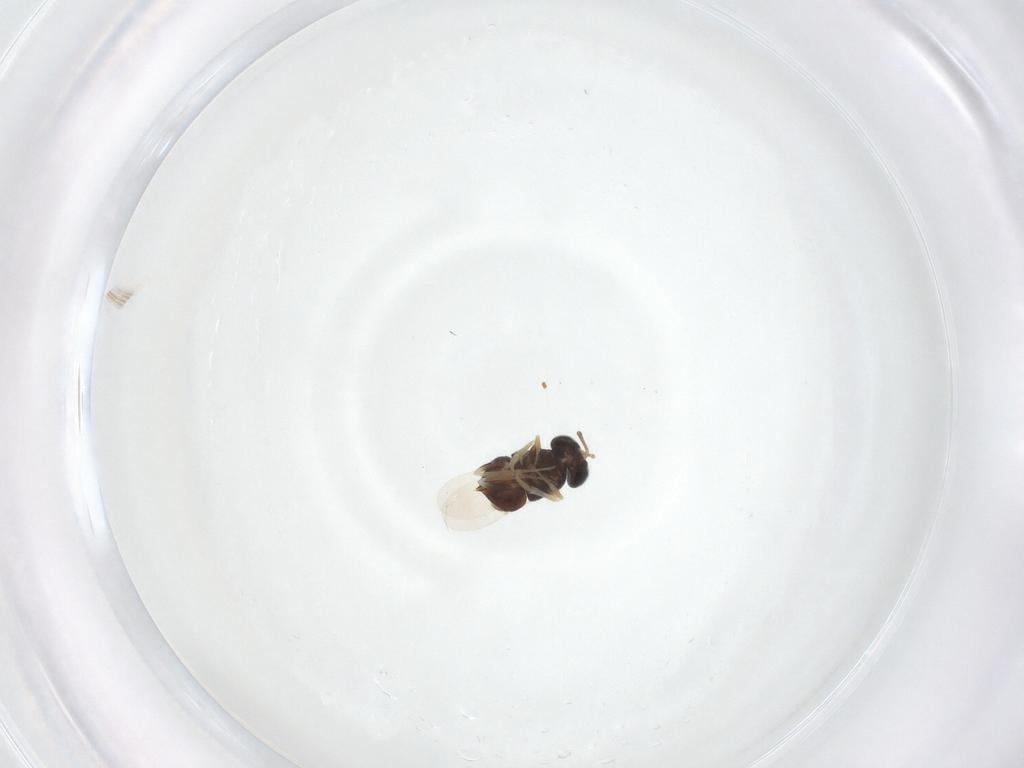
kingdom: Animalia
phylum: Arthropoda
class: Insecta
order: Hymenoptera
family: Encyrtidae
